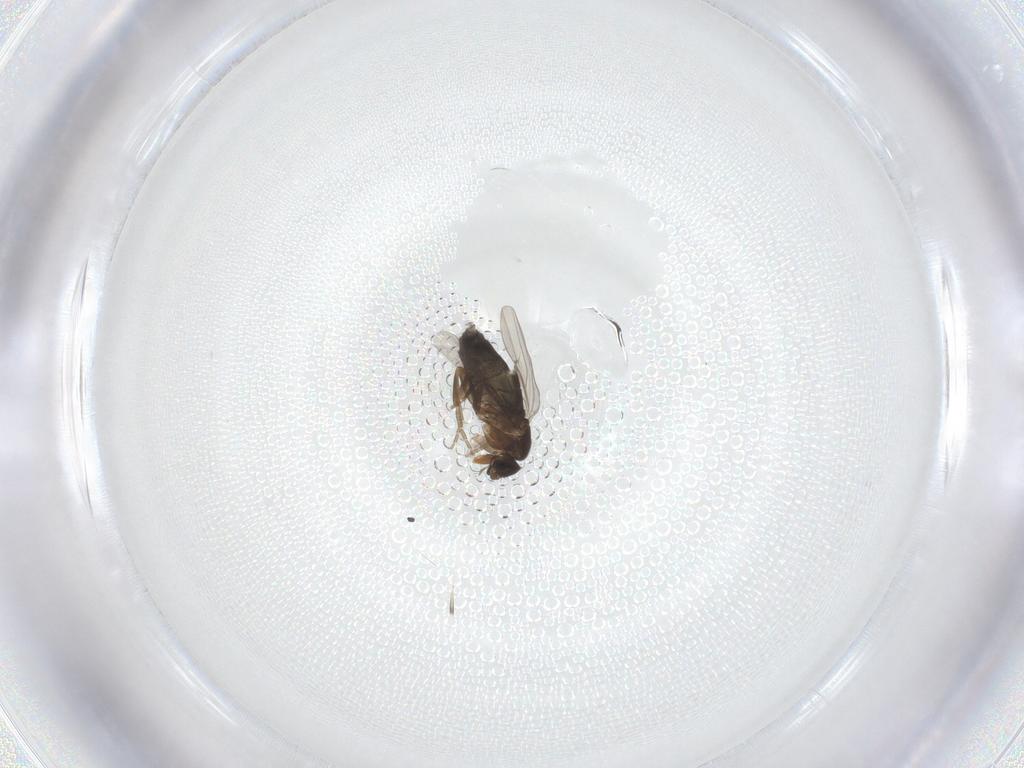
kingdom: Animalia
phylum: Arthropoda
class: Insecta
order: Diptera
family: Phoridae
